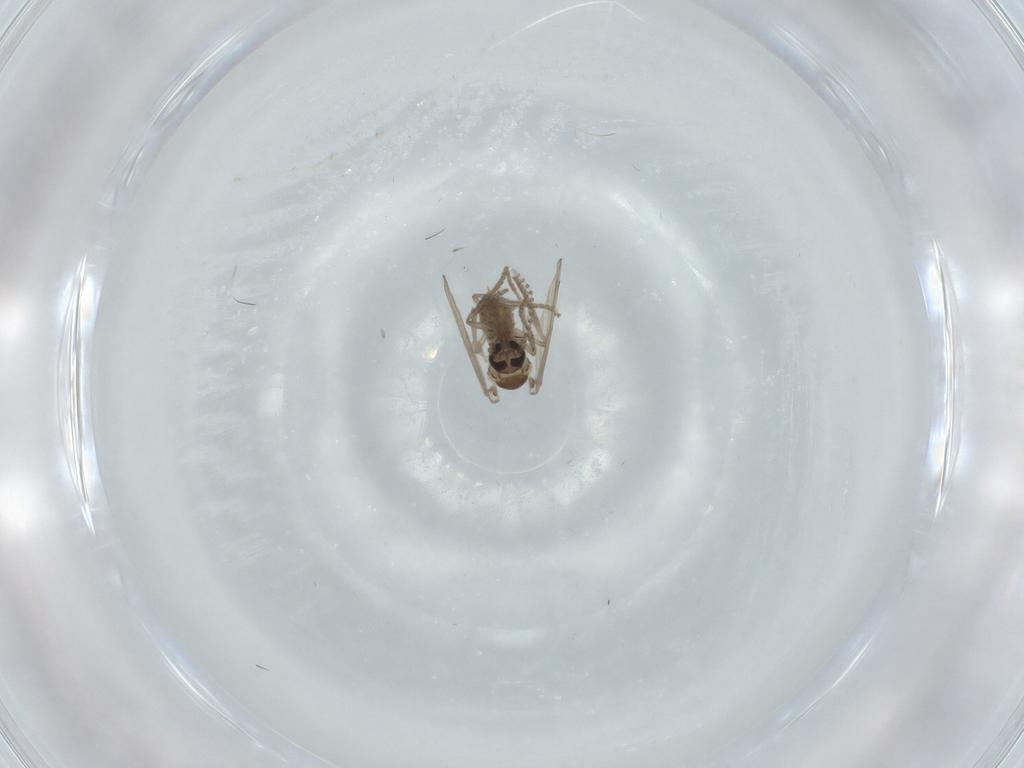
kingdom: Animalia
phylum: Arthropoda
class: Insecta
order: Diptera
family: Cecidomyiidae
